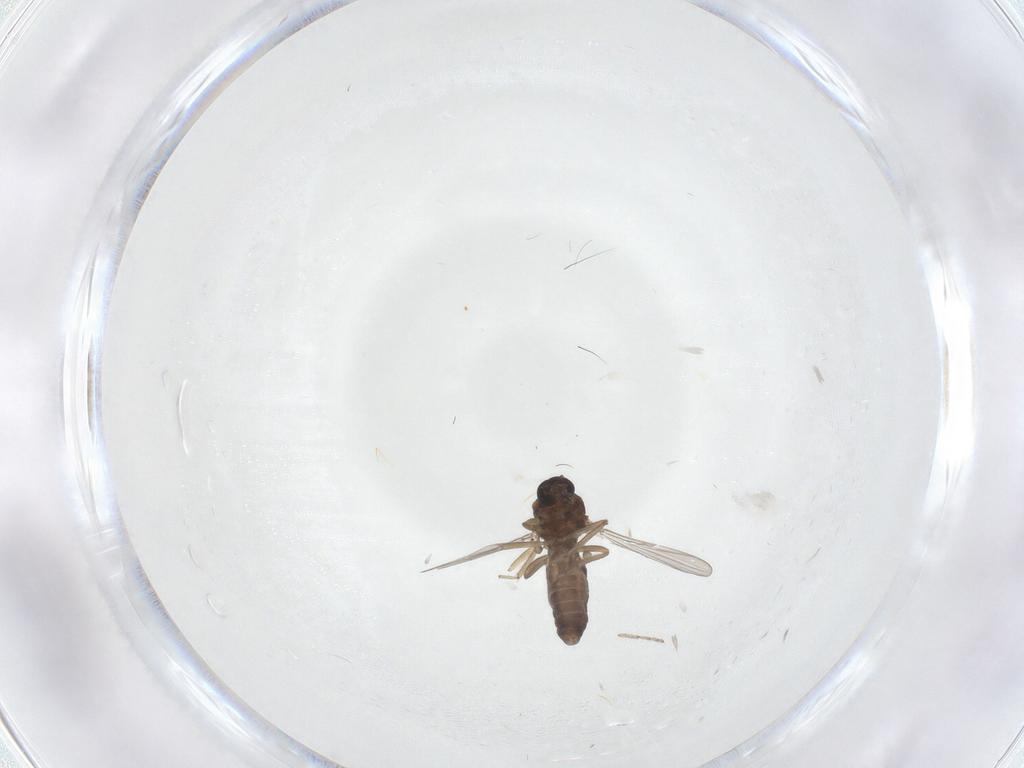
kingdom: Animalia
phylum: Arthropoda
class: Insecta
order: Diptera
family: Ceratopogonidae
